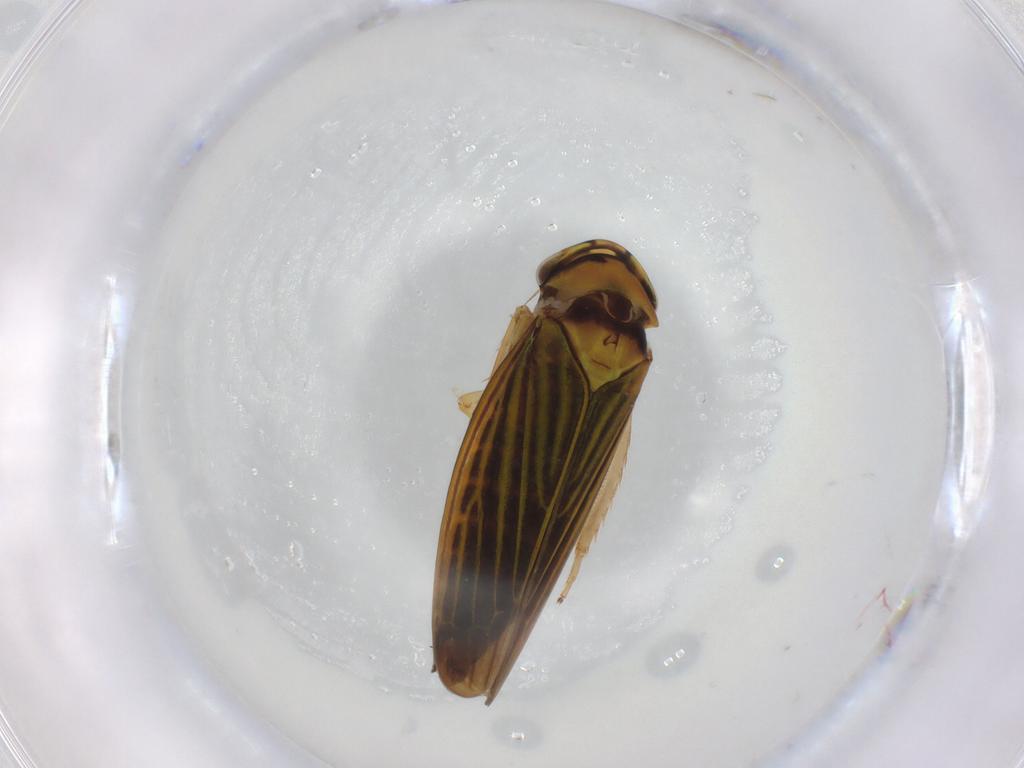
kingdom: Animalia
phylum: Arthropoda
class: Insecta
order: Hemiptera
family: Cicadellidae
